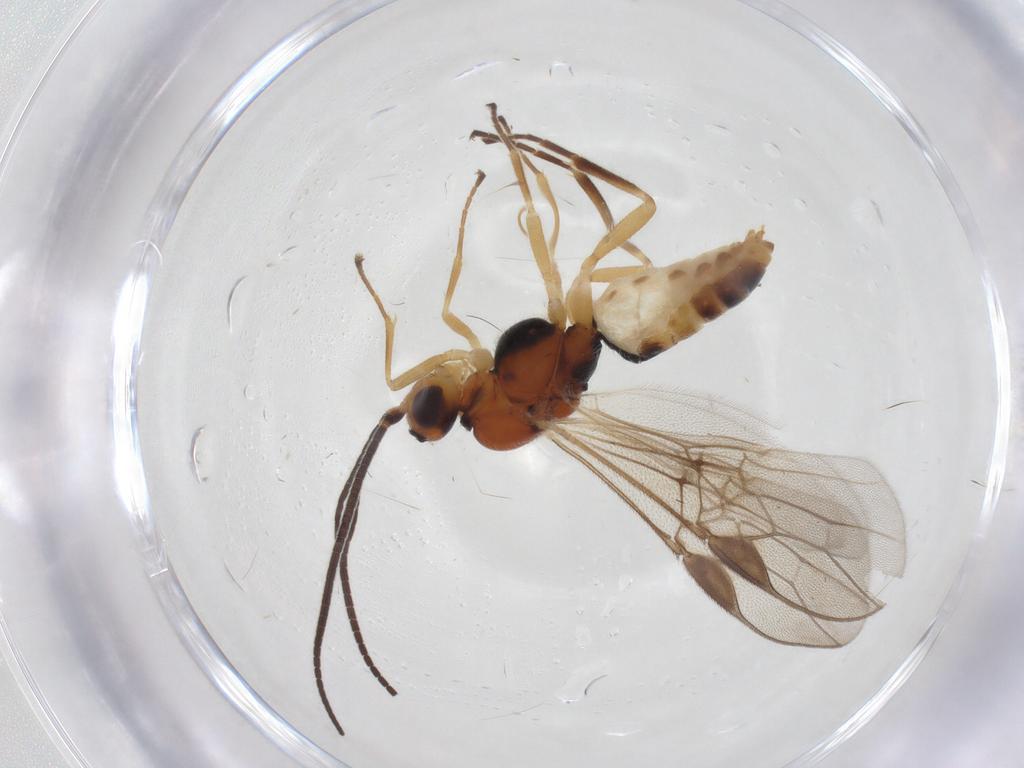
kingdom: Animalia
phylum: Arthropoda
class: Insecta
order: Hymenoptera
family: Braconidae
